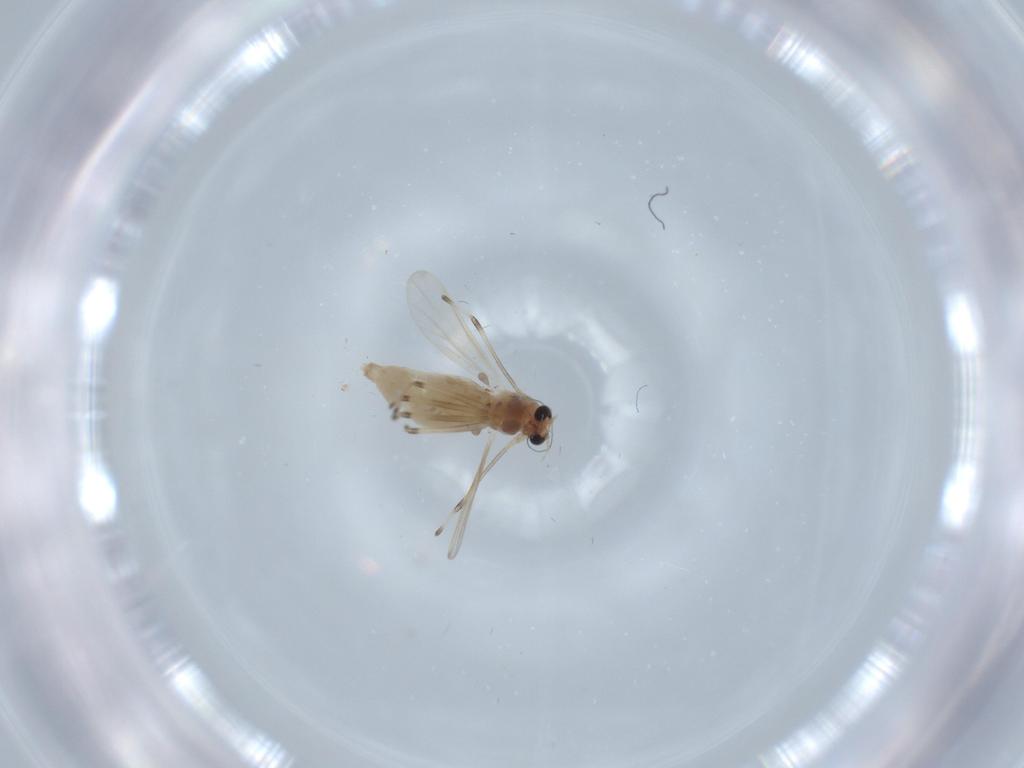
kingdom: Animalia
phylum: Arthropoda
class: Insecta
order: Diptera
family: Chironomidae
